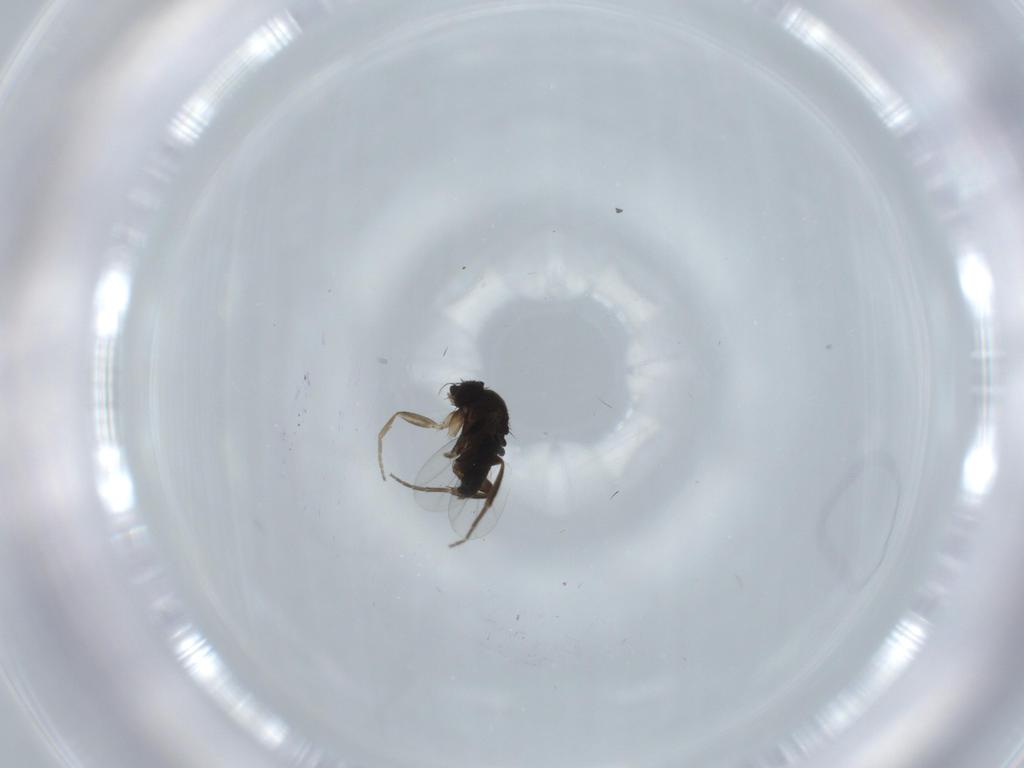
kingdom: Animalia
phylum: Arthropoda
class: Insecta
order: Diptera
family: Phoridae
